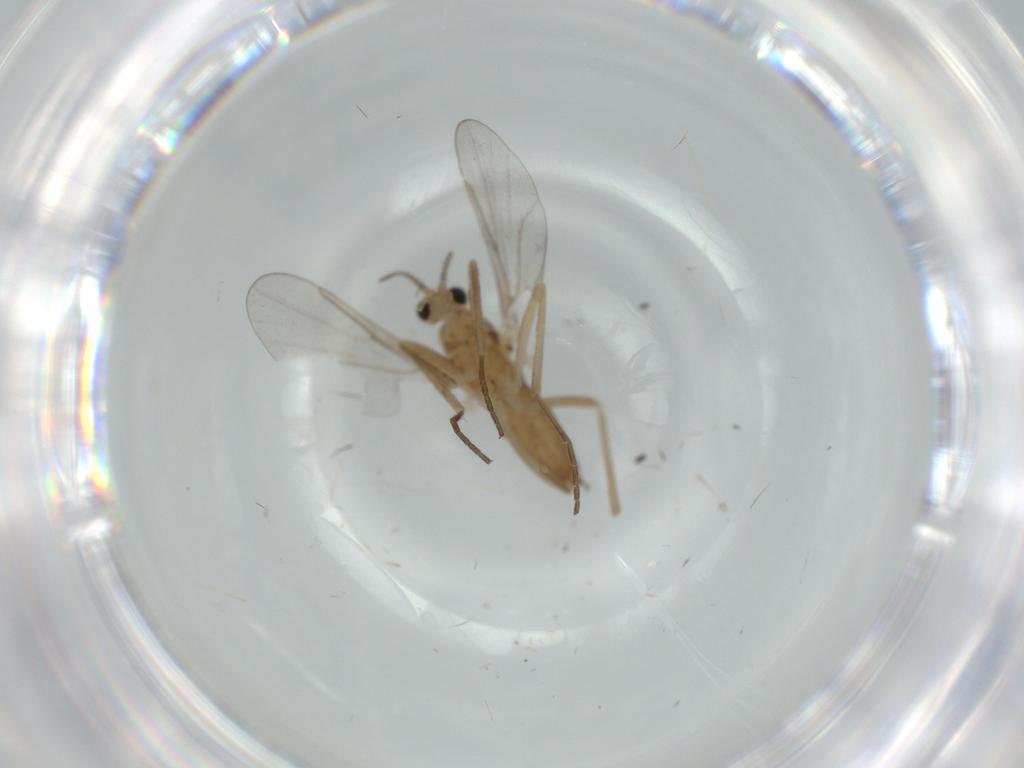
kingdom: Animalia
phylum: Arthropoda
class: Insecta
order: Diptera
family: Cecidomyiidae
